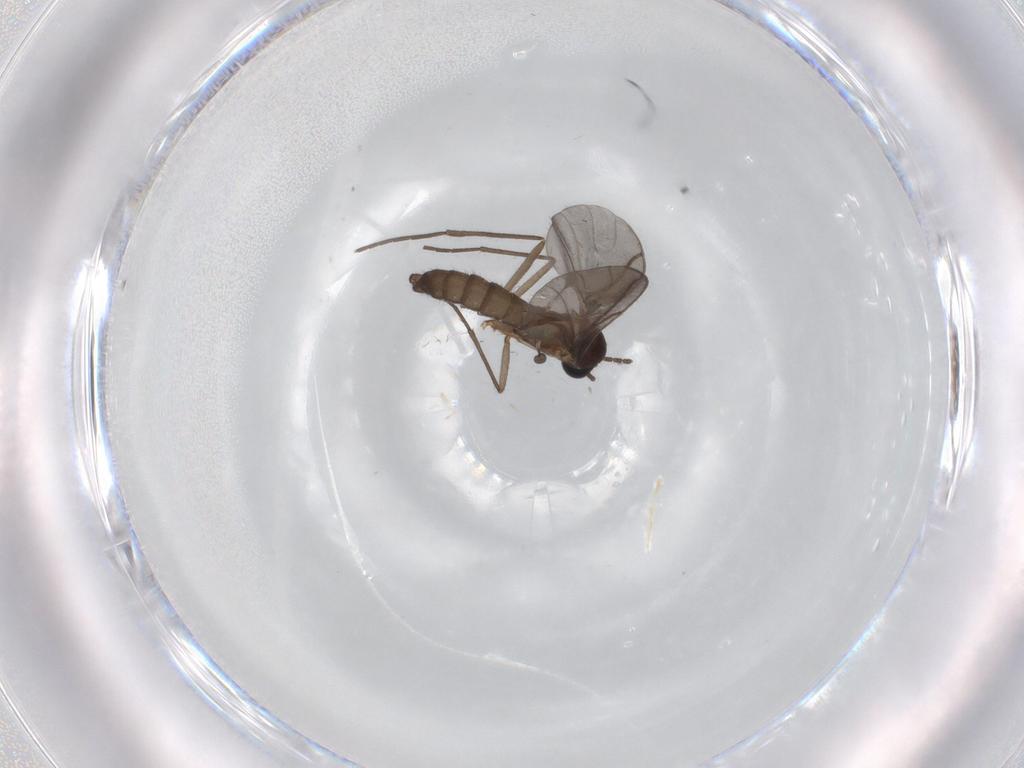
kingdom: Animalia
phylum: Arthropoda
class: Insecta
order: Diptera
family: Sciaridae
